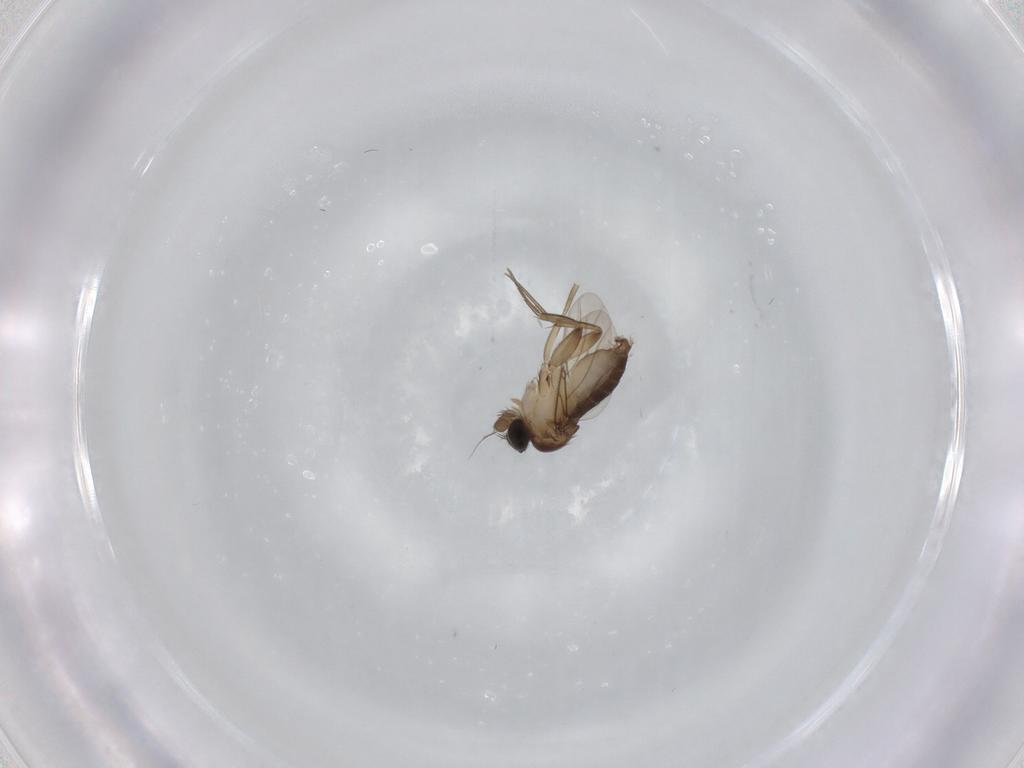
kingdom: Animalia
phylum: Arthropoda
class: Insecta
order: Diptera
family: Phoridae
